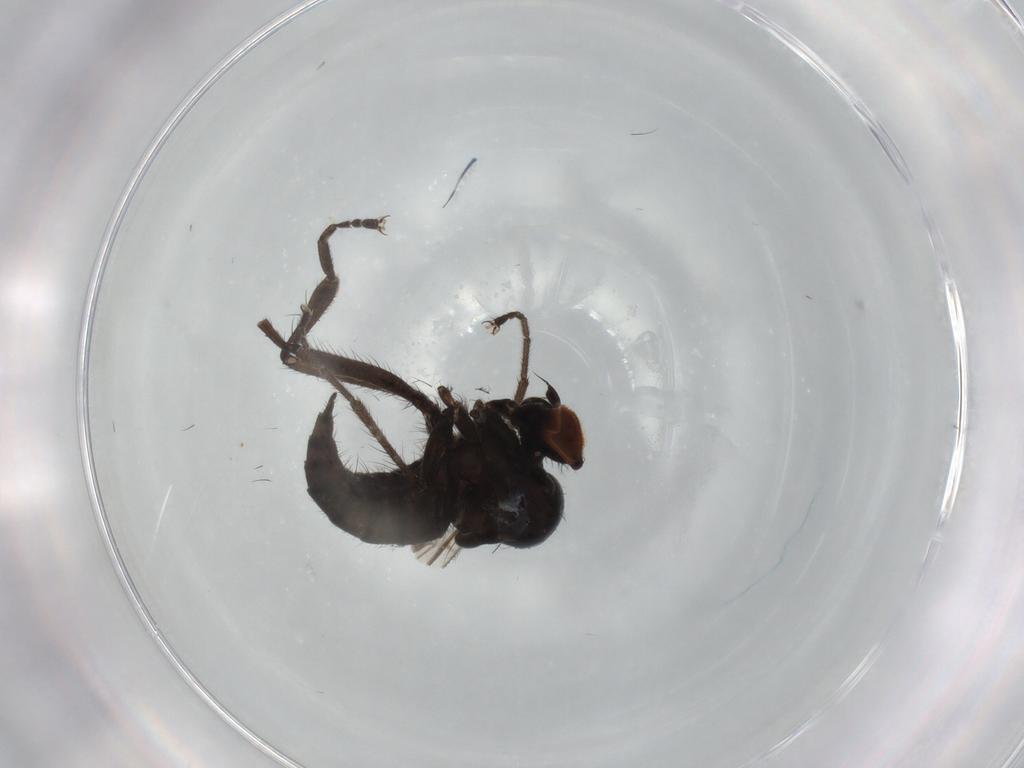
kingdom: Animalia
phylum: Arthropoda
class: Insecta
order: Diptera
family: Hybotidae
